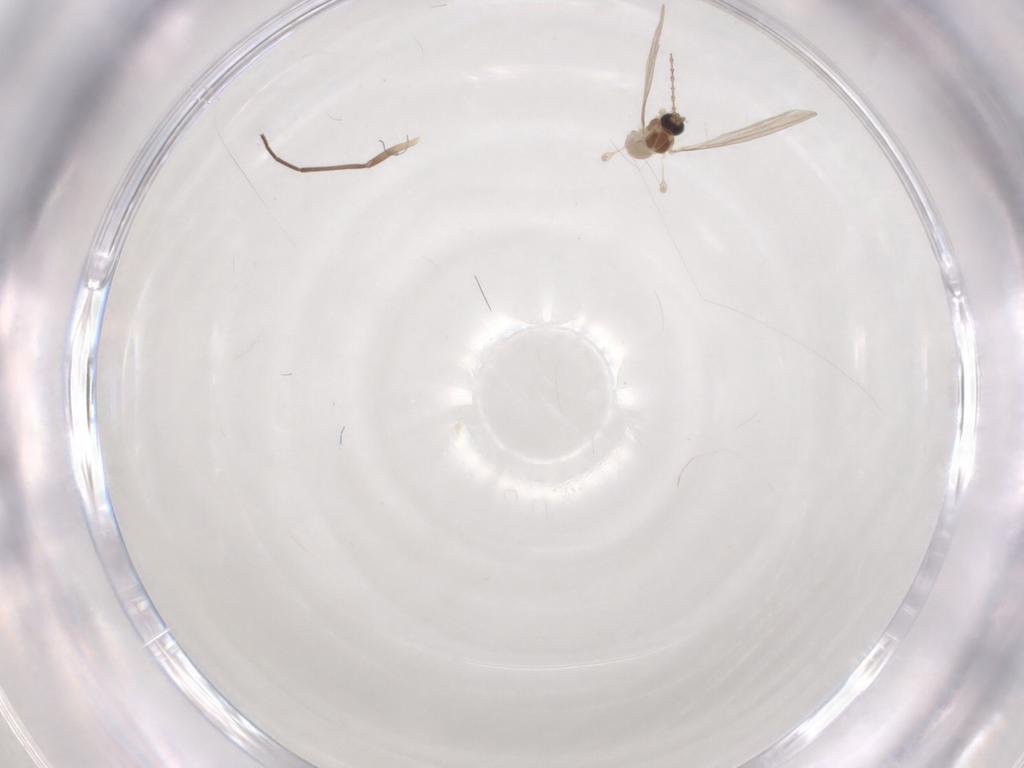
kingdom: Animalia
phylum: Arthropoda
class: Insecta
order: Diptera
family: Cecidomyiidae
